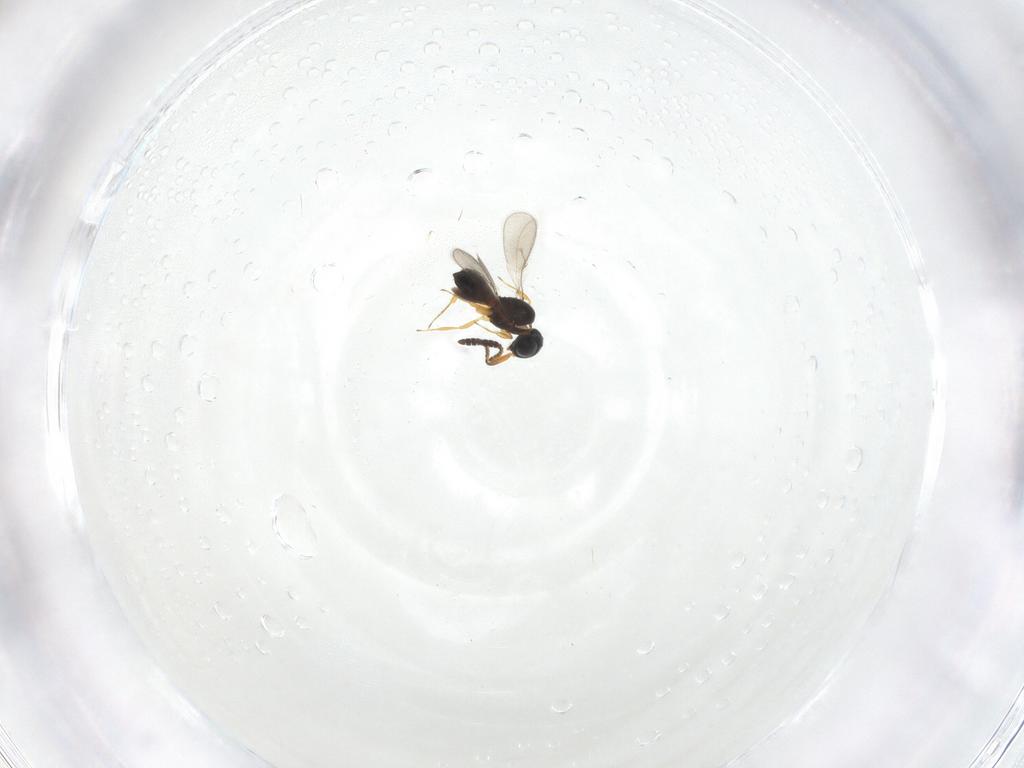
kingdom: Animalia
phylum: Arthropoda
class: Insecta
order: Hymenoptera
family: Scelionidae
